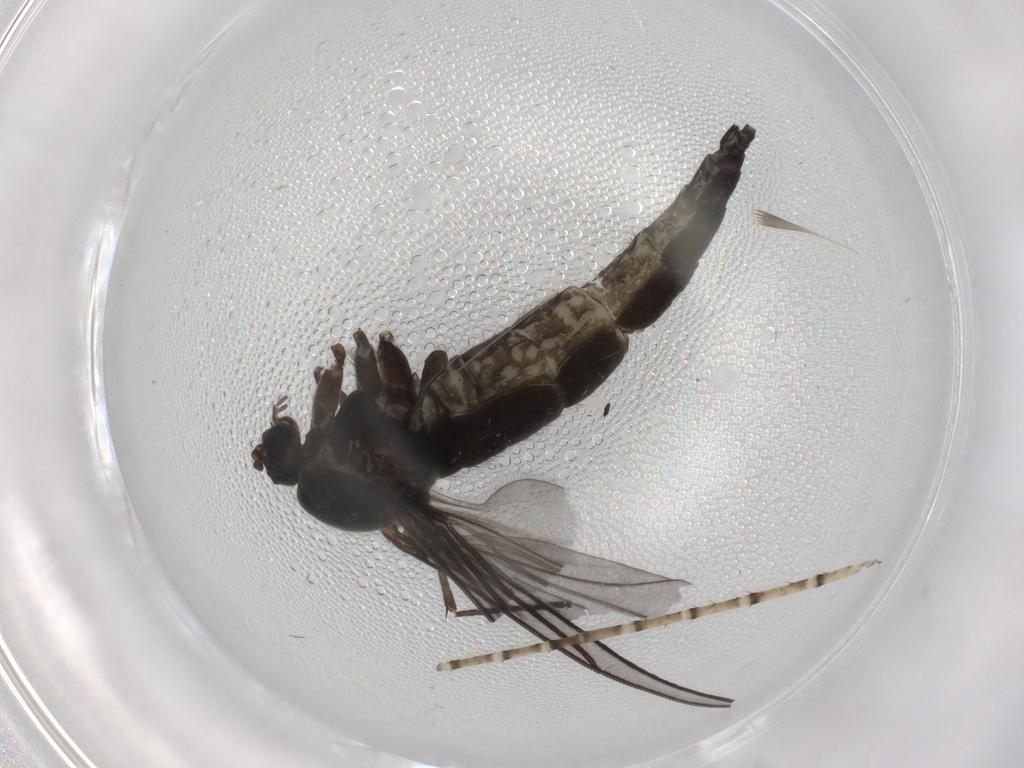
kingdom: Animalia
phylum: Arthropoda
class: Insecta
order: Diptera
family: Sciaridae
